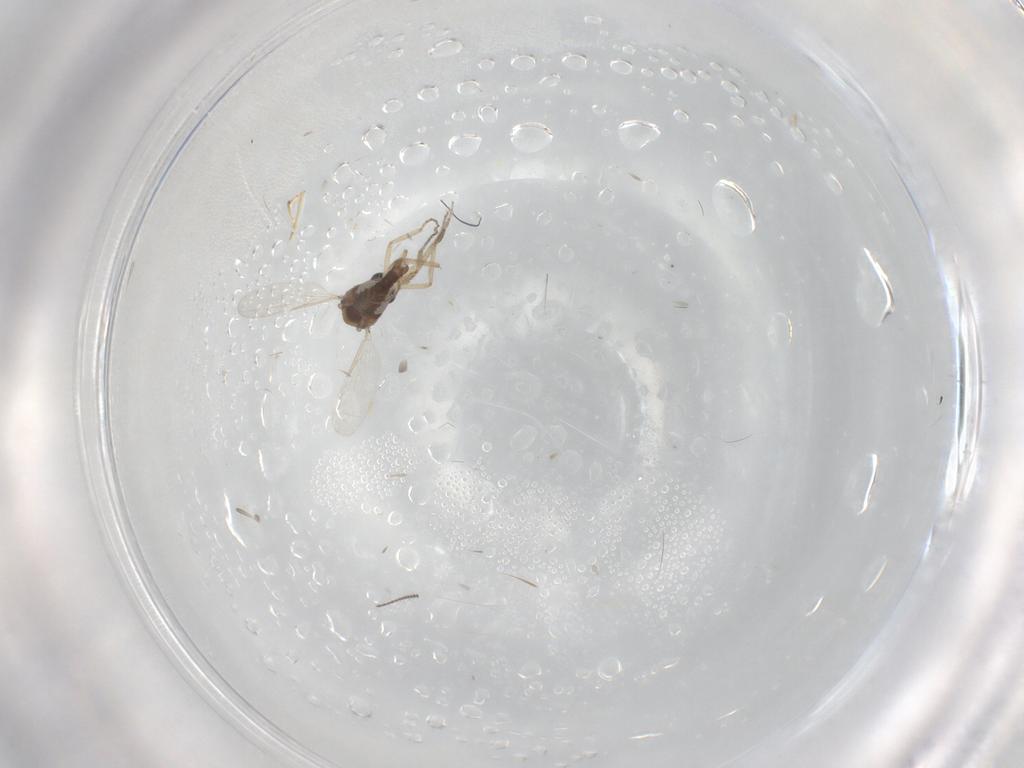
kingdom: Animalia
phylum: Arthropoda
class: Insecta
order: Diptera
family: Ceratopogonidae
